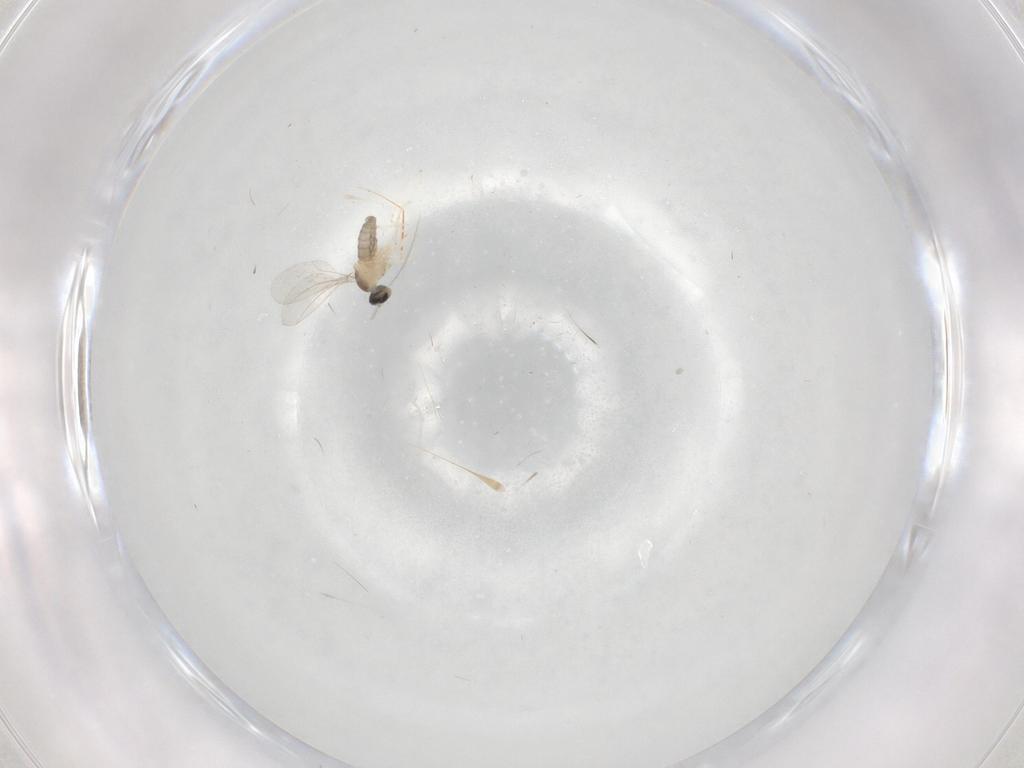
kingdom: Animalia
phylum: Arthropoda
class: Insecta
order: Diptera
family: Cecidomyiidae
